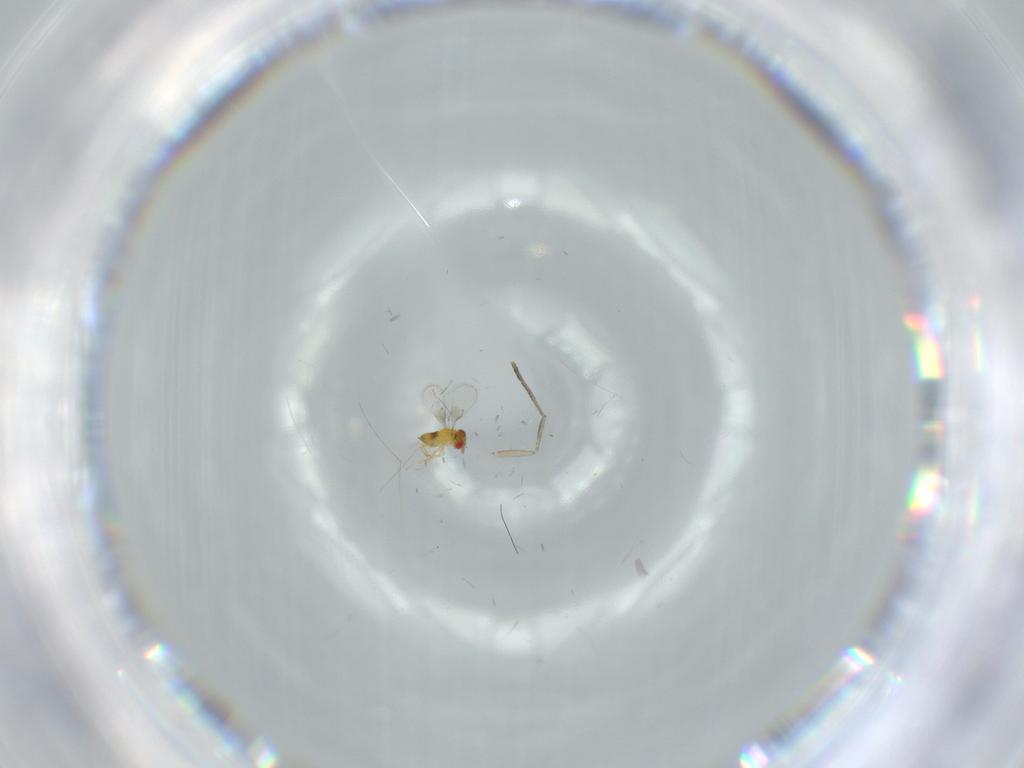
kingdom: Animalia
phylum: Arthropoda
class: Insecta
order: Hymenoptera
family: Trichogrammatidae
